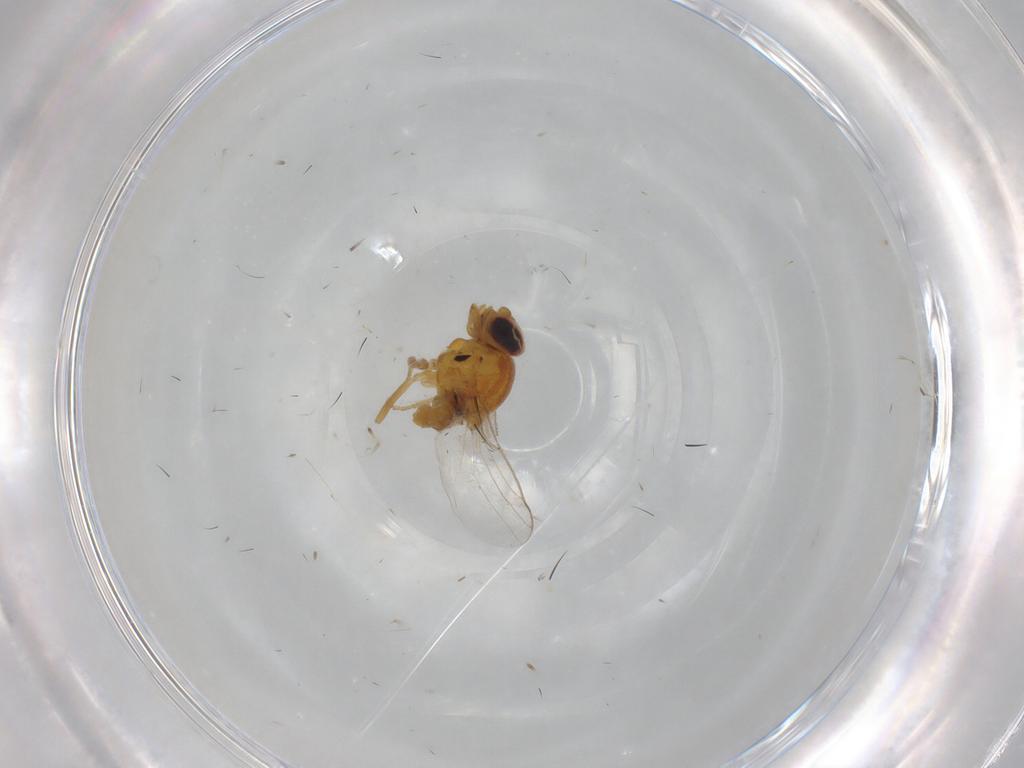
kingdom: Animalia
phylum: Arthropoda
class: Insecta
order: Diptera
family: Chloropidae
